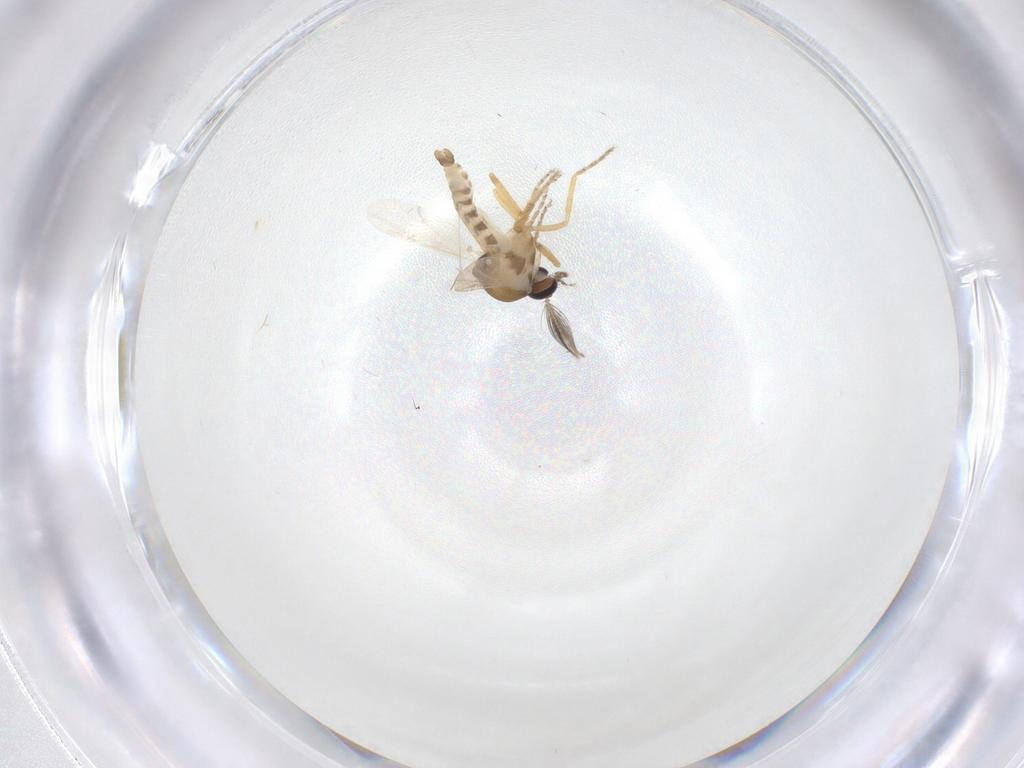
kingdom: Animalia
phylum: Arthropoda
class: Insecta
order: Diptera
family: Ceratopogonidae
